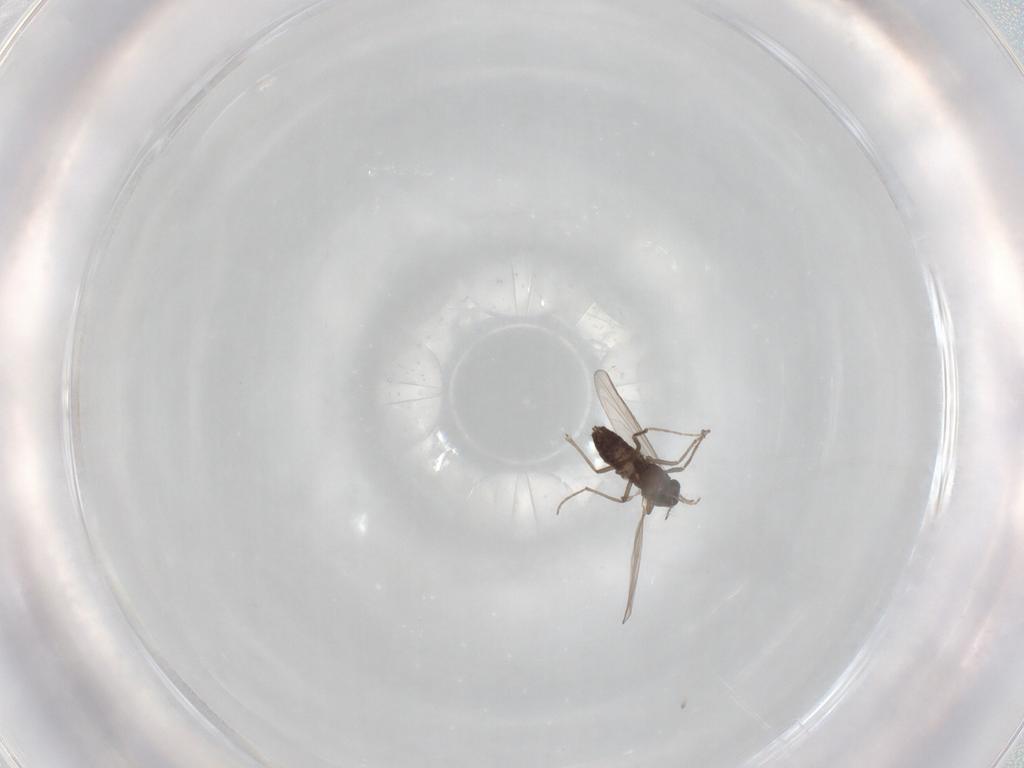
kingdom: Animalia
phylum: Arthropoda
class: Insecta
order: Diptera
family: Chironomidae
